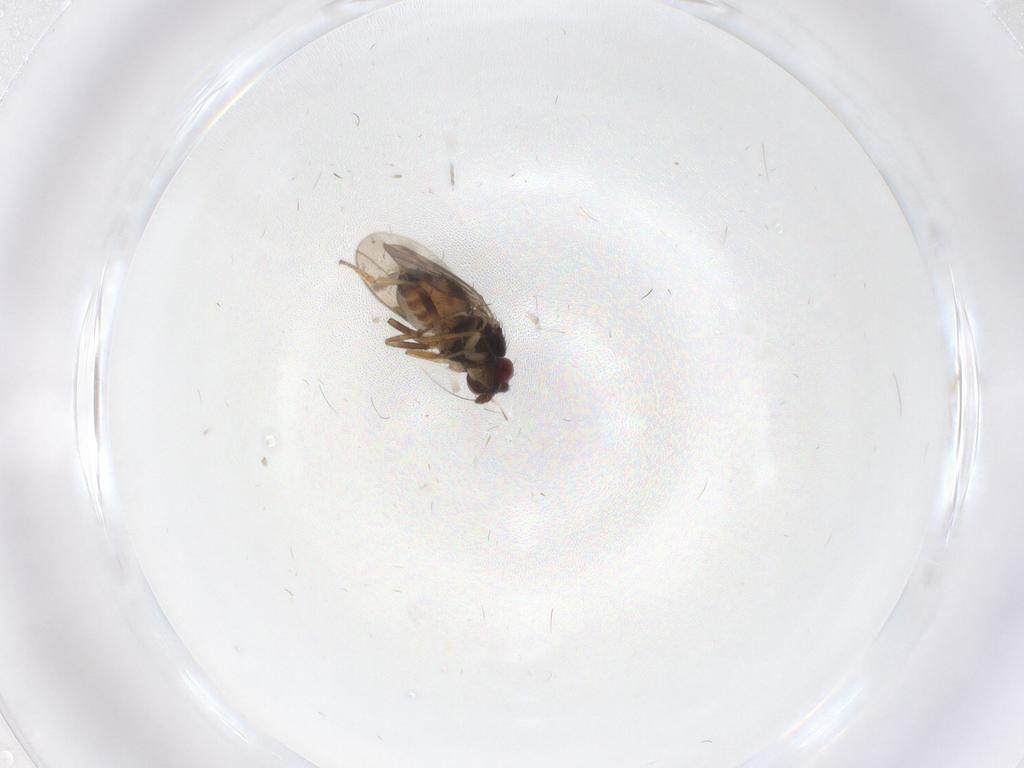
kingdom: Animalia
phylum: Arthropoda
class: Insecta
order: Diptera
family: Sphaeroceridae
